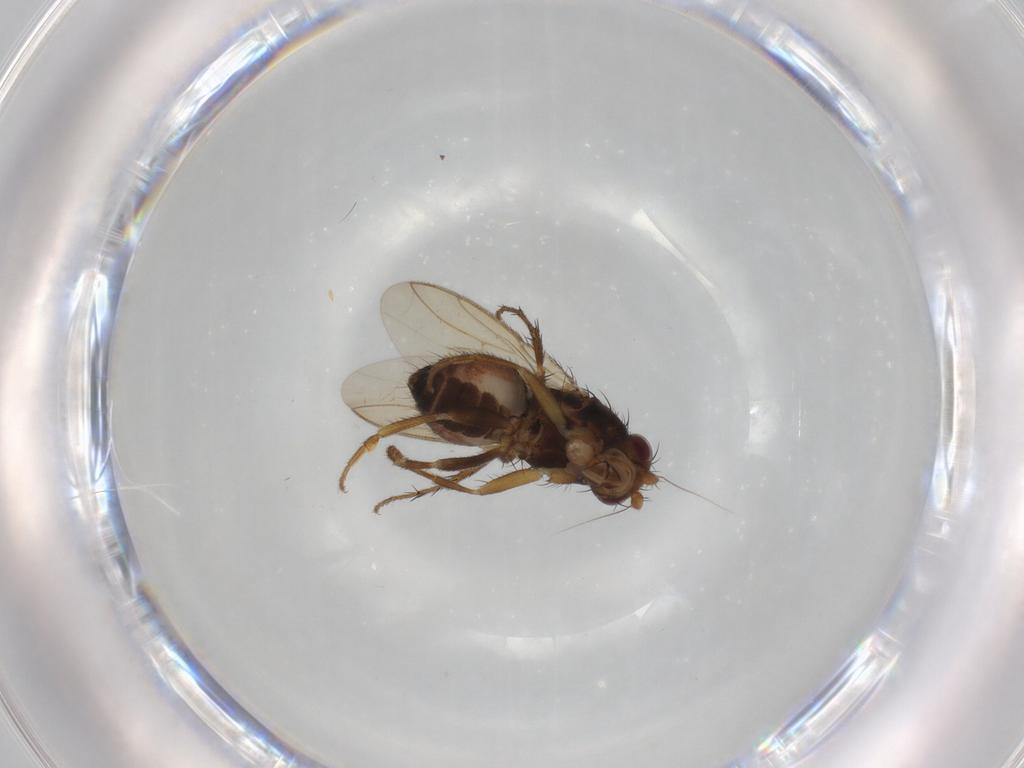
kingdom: Animalia
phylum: Arthropoda
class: Insecta
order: Diptera
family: Sphaeroceridae
